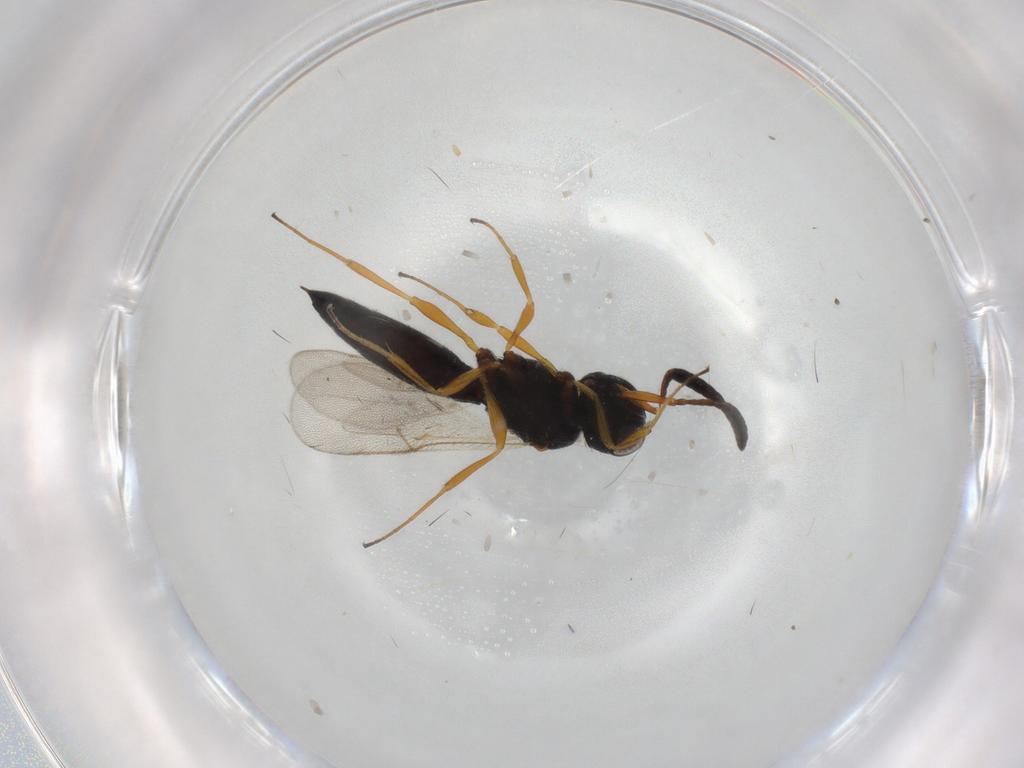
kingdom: Animalia
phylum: Arthropoda
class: Insecta
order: Hymenoptera
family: Scelionidae
